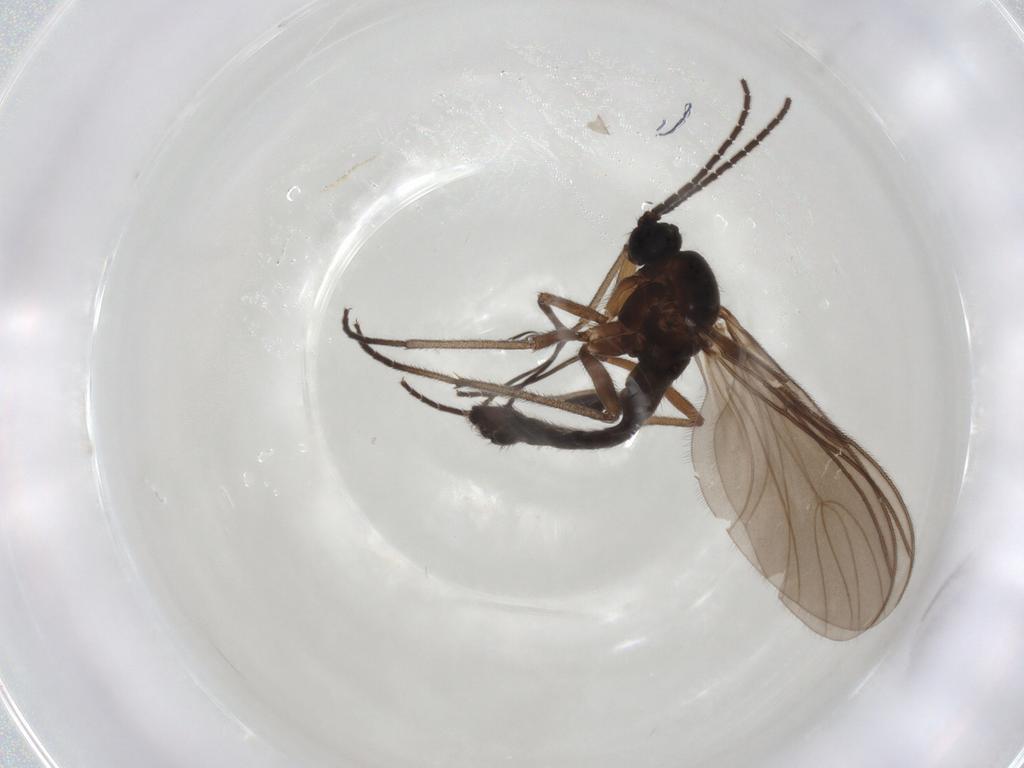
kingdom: Animalia
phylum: Arthropoda
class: Insecta
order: Diptera
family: Sciaridae
